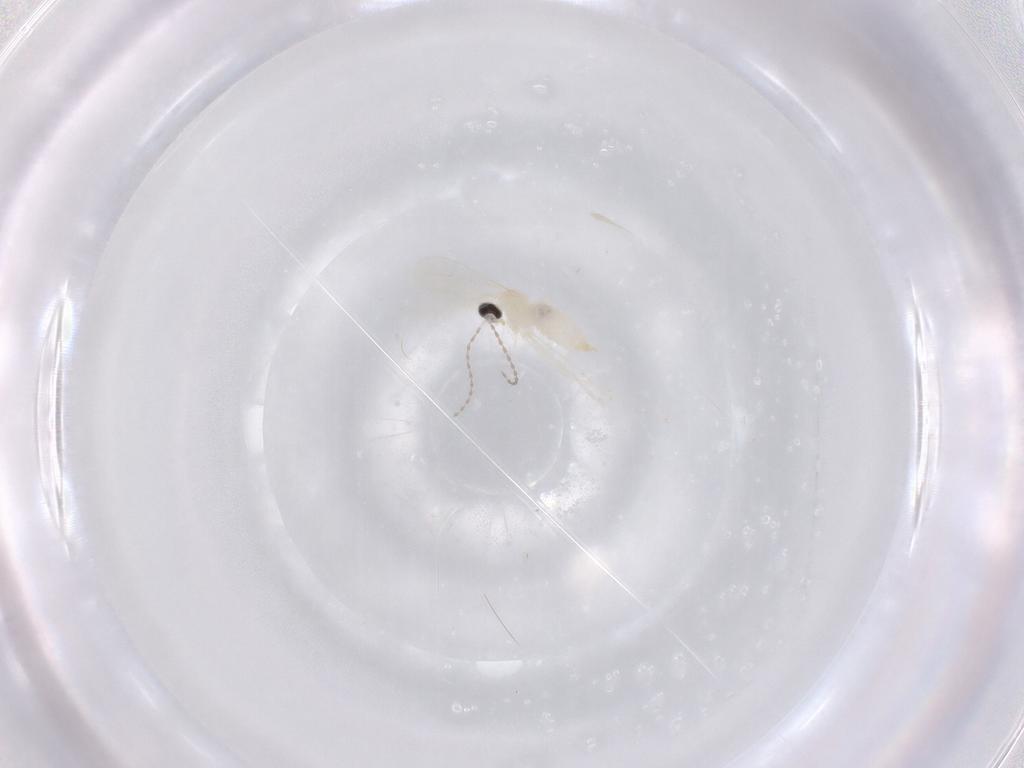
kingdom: Animalia
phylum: Arthropoda
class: Insecta
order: Diptera
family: Cecidomyiidae
